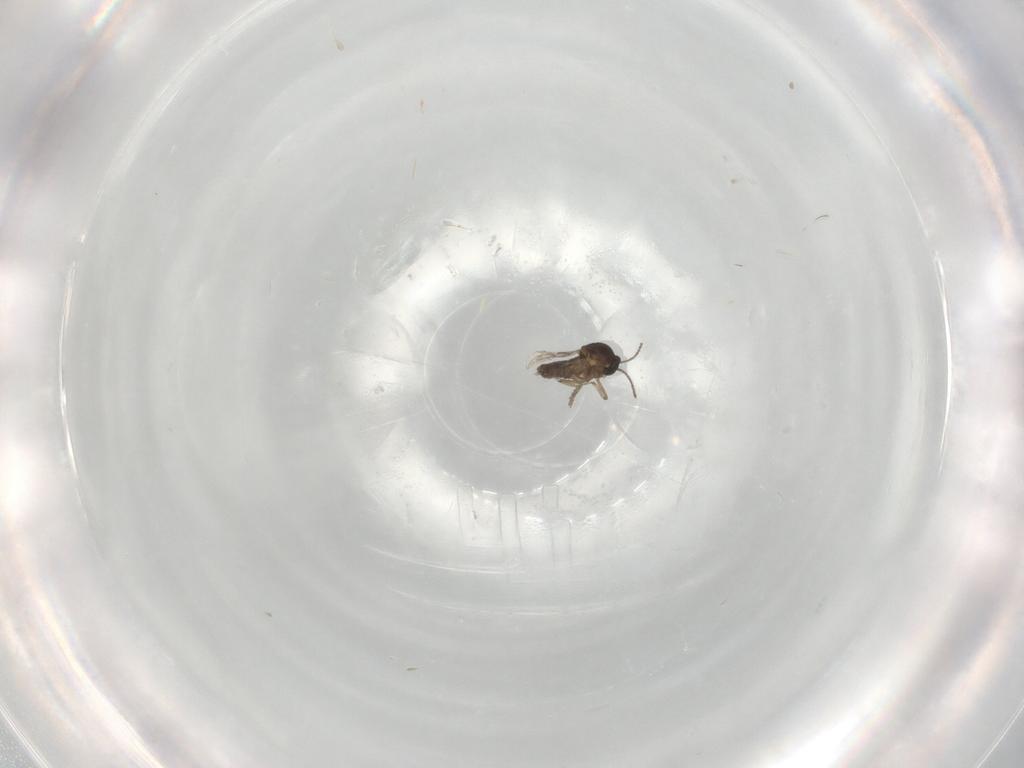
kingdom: Animalia
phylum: Arthropoda
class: Insecta
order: Diptera
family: Ceratopogonidae
